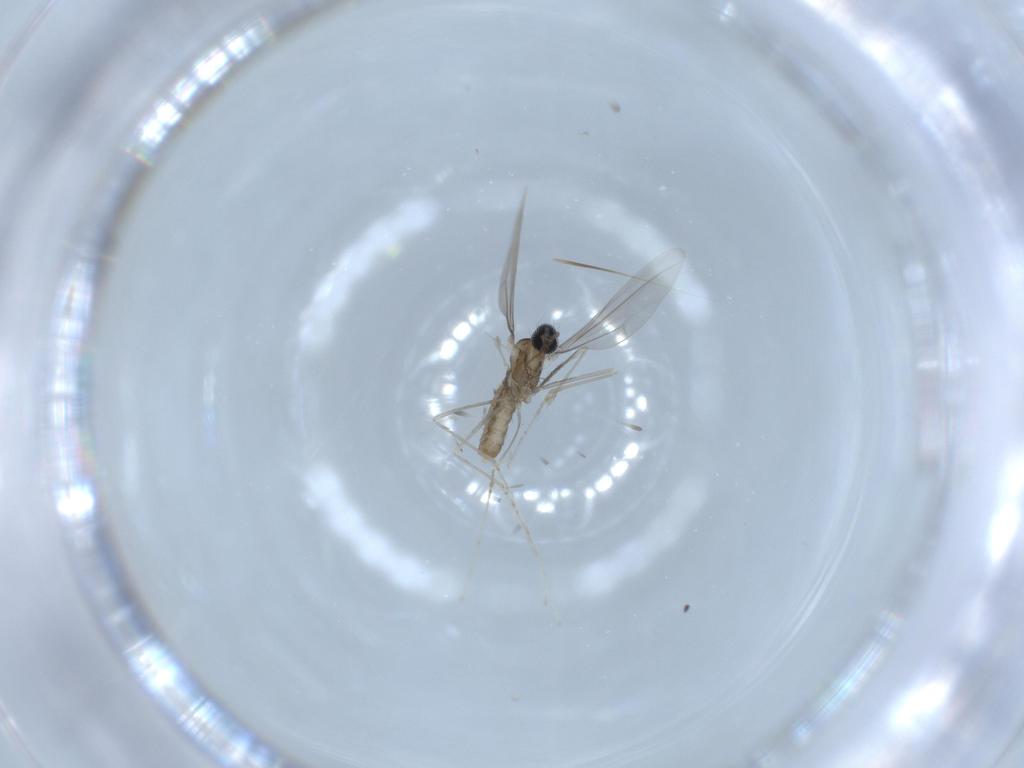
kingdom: Animalia
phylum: Arthropoda
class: Insecta
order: Diptera
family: Cecidomyiidae
